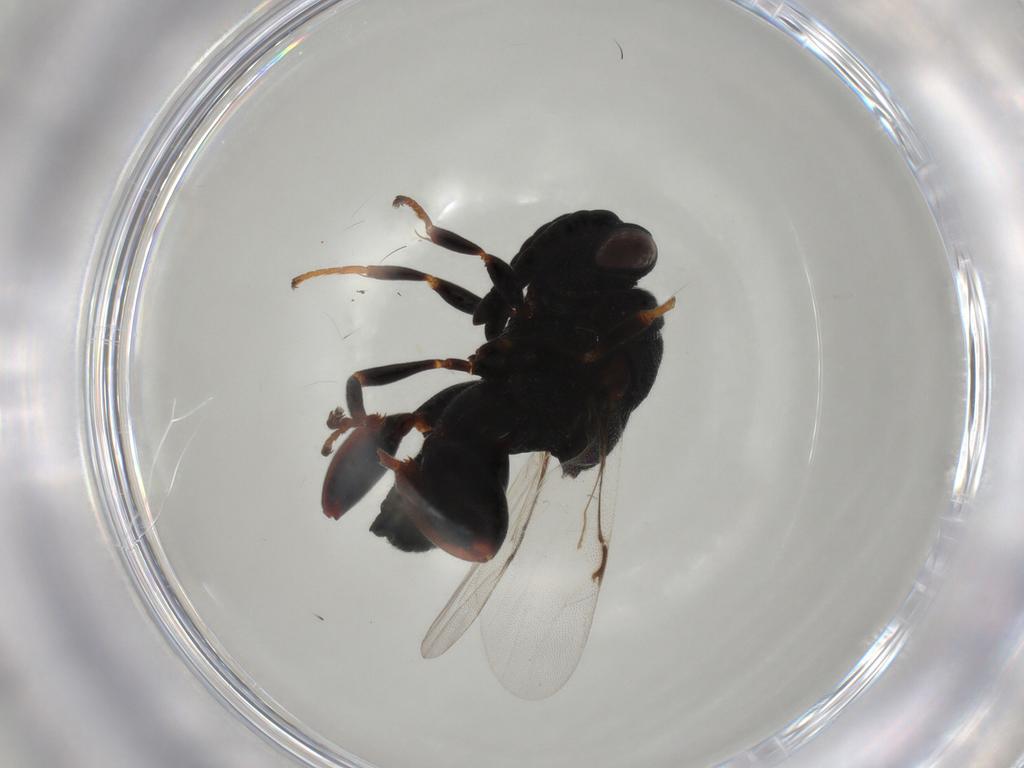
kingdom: Animalia
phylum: Arthropoda
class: Insecta
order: Hymenoptera
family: Chalcididae
